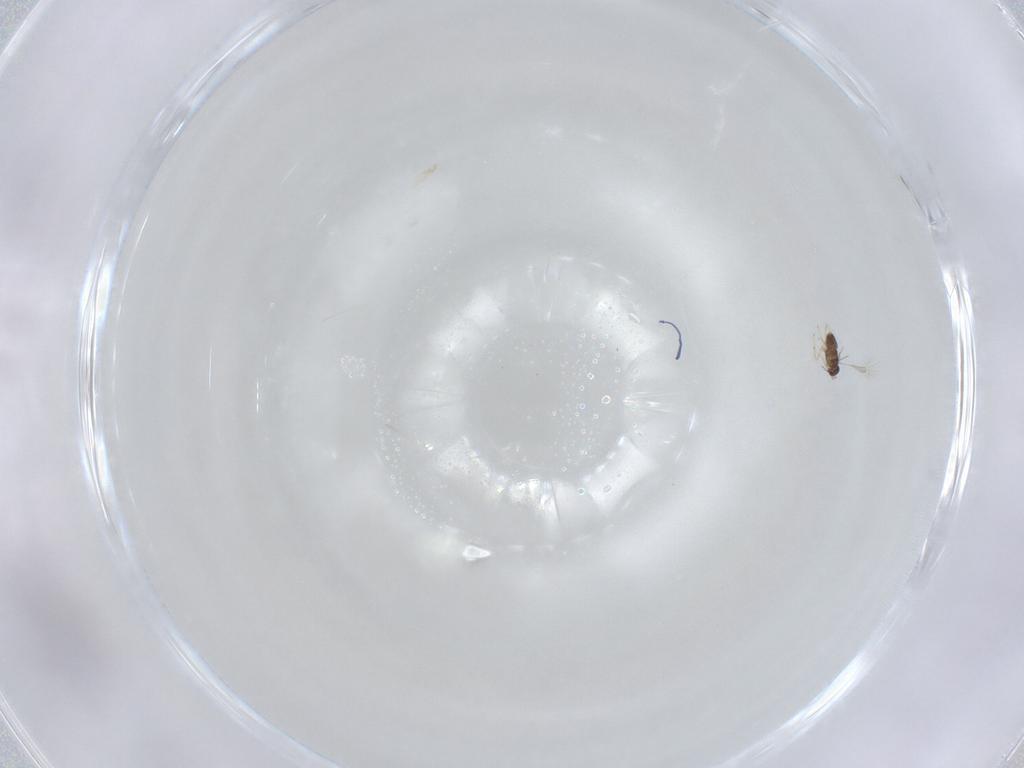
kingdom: Animalia
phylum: Arthropoda
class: Insecta
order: Hymenoptera
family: Mymaridae
